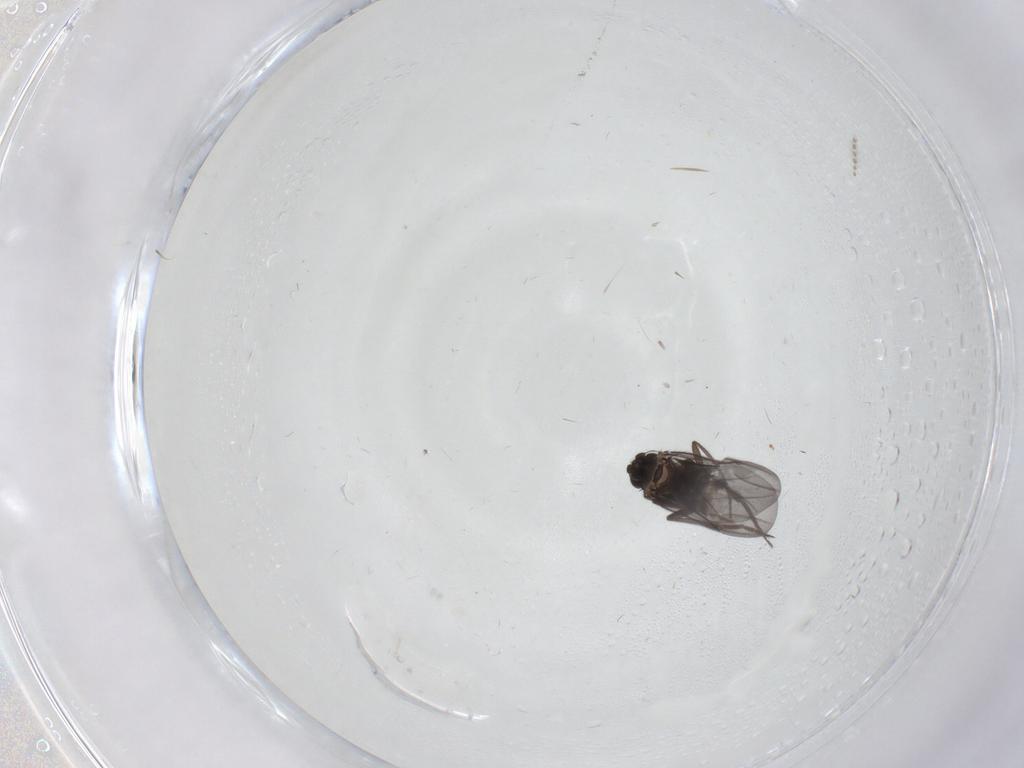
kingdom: Animalia
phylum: Arthropoda
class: Insecta
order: Diptera
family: Phoridae
